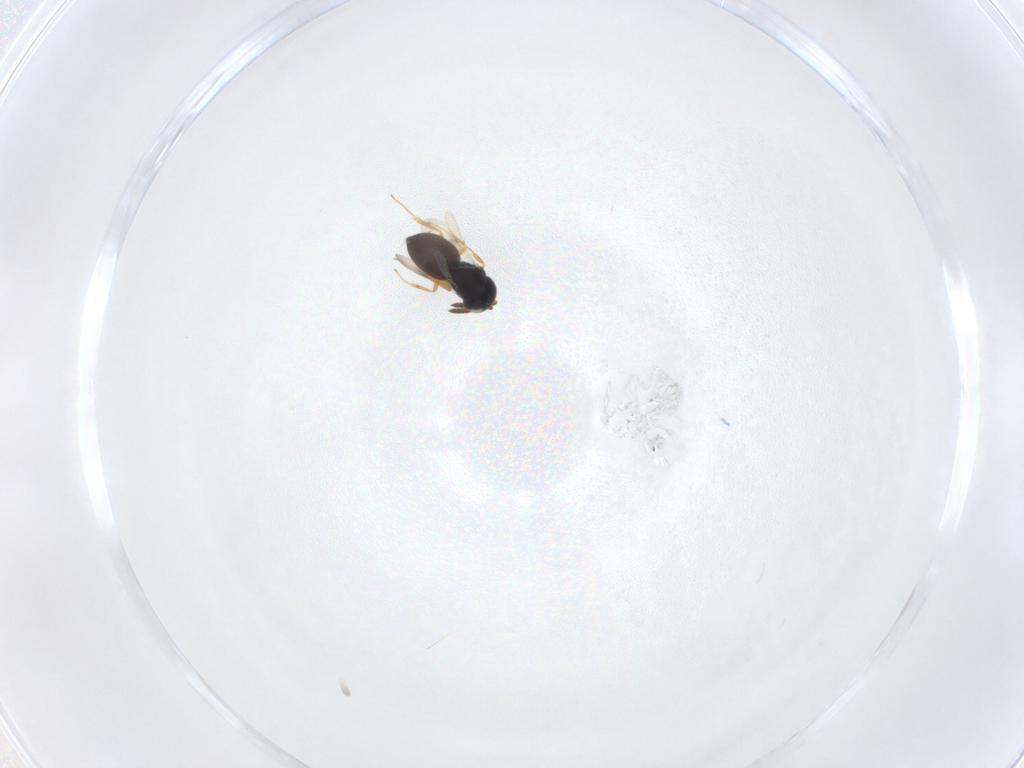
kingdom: Animalia
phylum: Arthropoda
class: Insecta
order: Hymenoptera
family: Scelionidae
